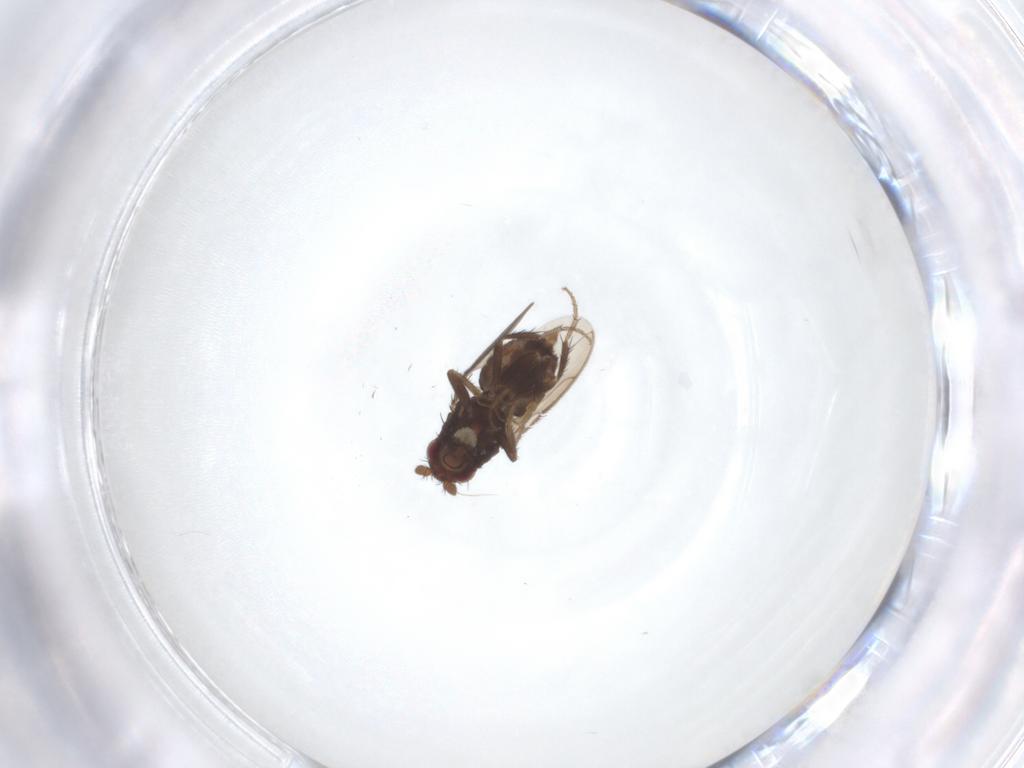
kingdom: Animalia
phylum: Arthropoda
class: Insecta
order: Diptera
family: Sphaeroceridae
